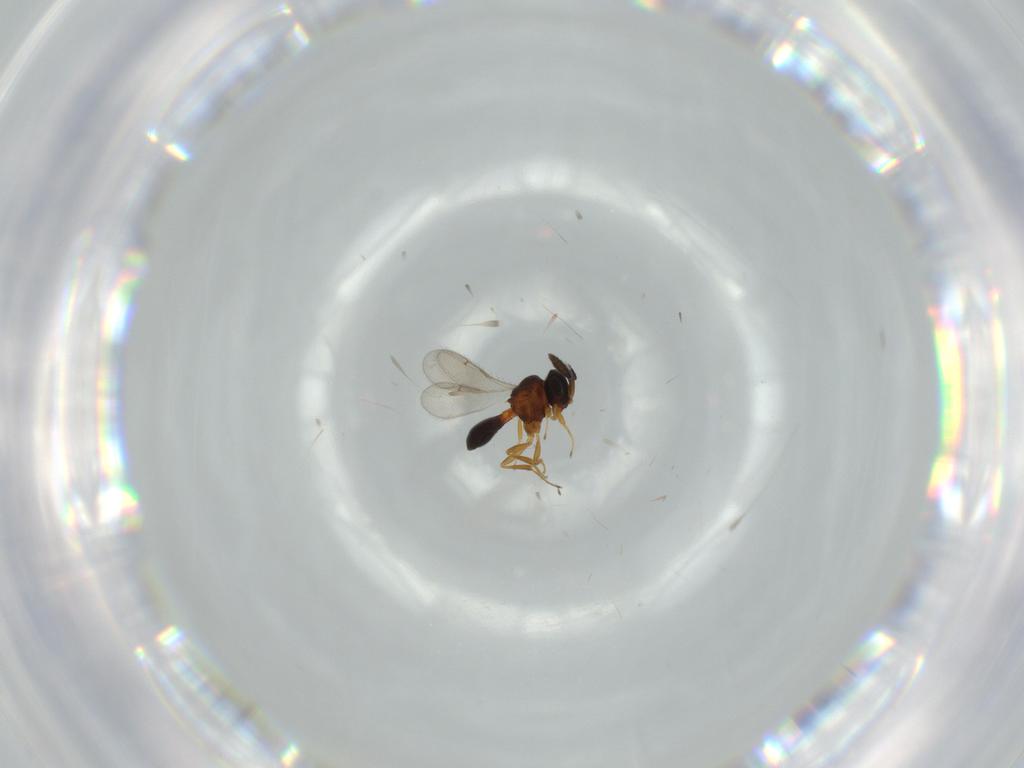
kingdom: Animalia
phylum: Arthropoda
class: Insecta
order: Hymenoptera
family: Scelionidae
